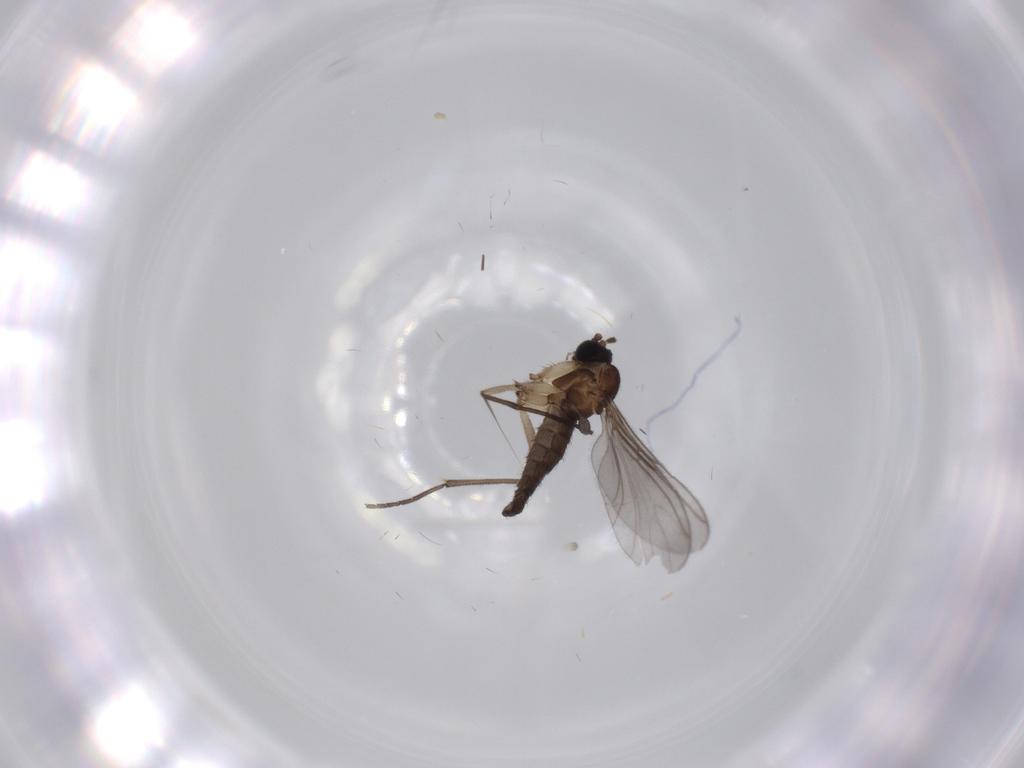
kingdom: Animalia
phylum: Arthropoda
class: Insecta
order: Diptera
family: Sciaridae
